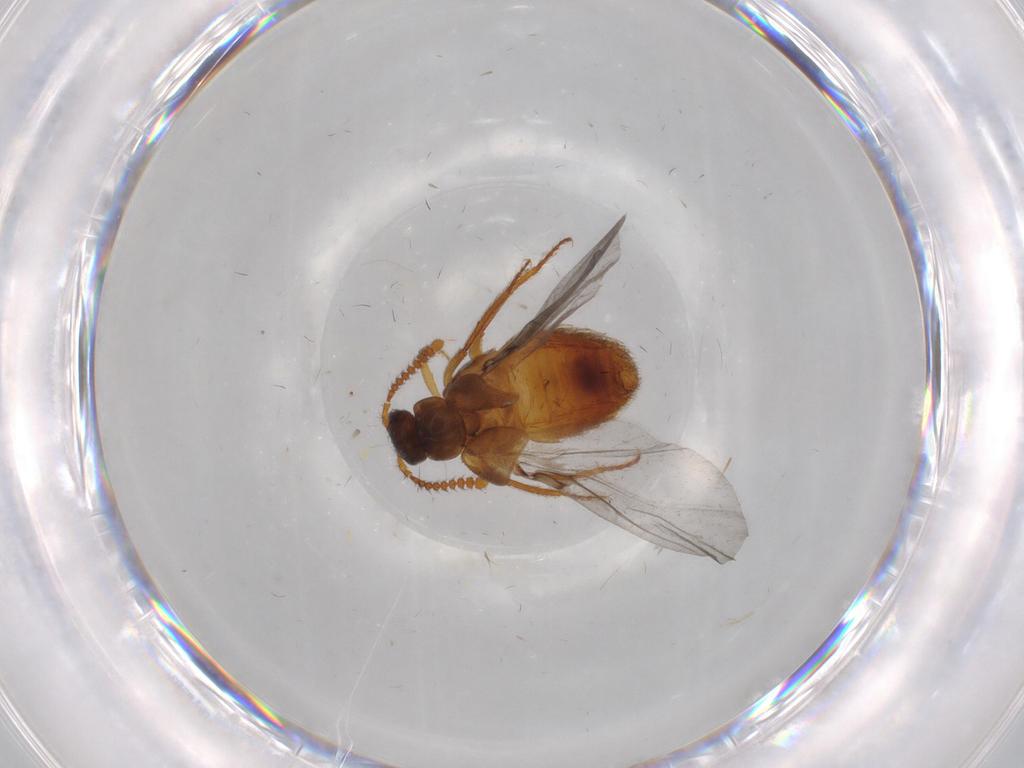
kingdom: Animalia
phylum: Arthropoda
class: Insecta
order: Coleoptera
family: Staphylinidae
